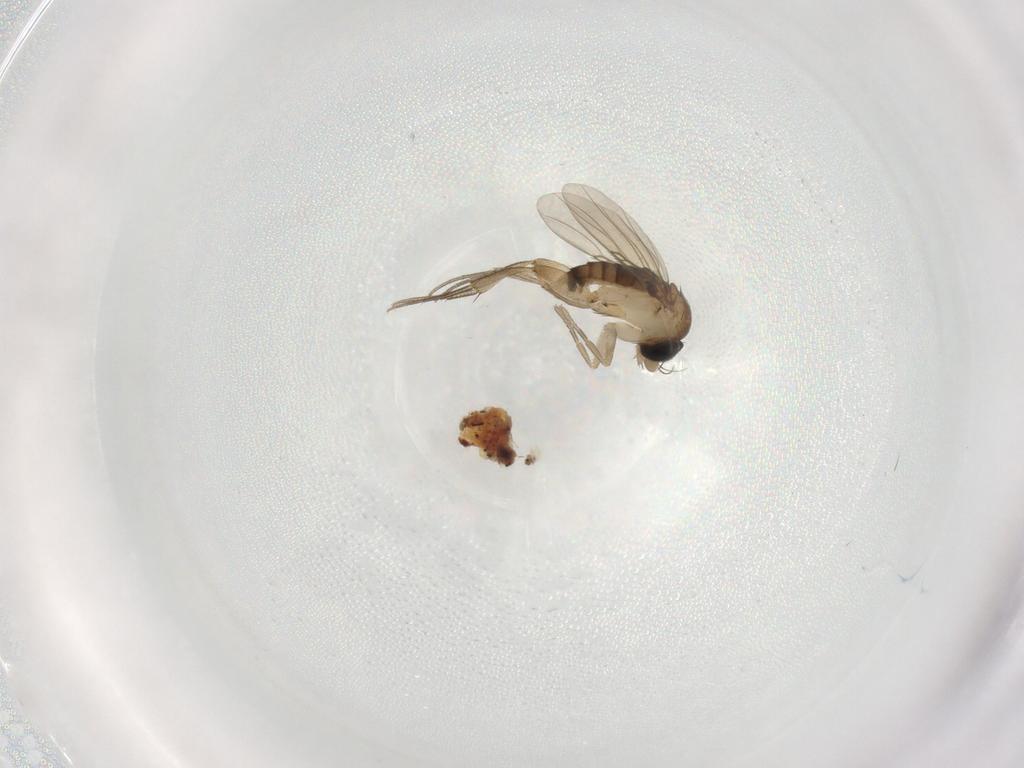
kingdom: Animalia
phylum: Arthropoda
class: Insecta
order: Diptera
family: Phoridae
